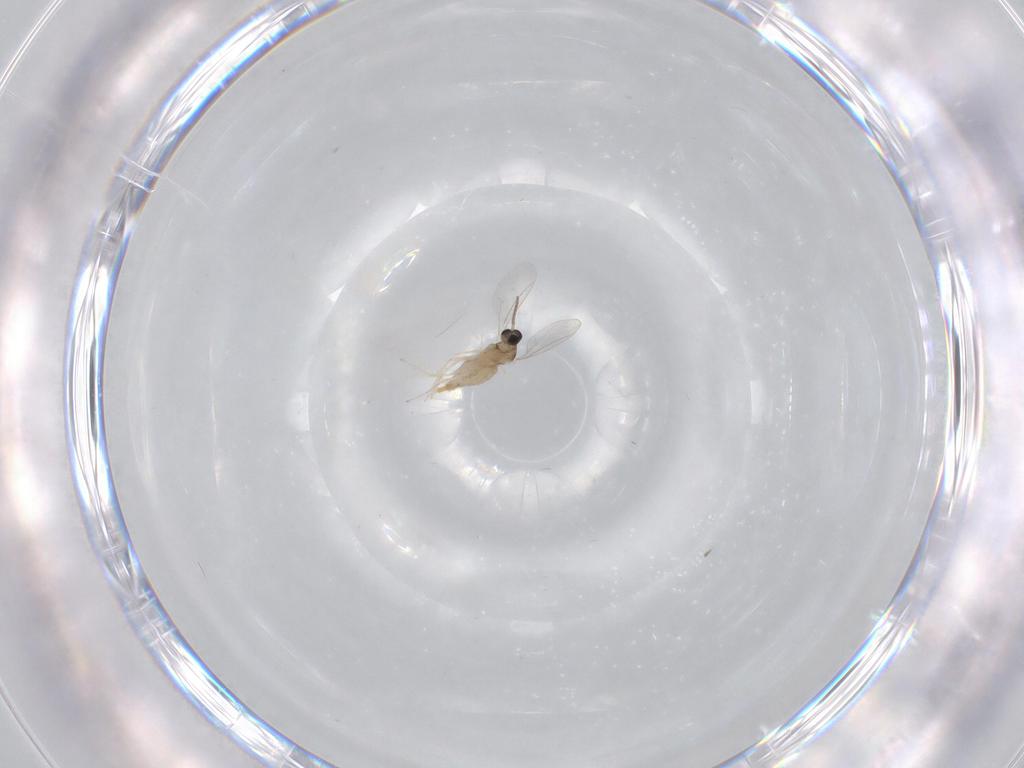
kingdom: Animalia
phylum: Arthropoda
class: Insecta
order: Diptera
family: Cecidomyiidae
